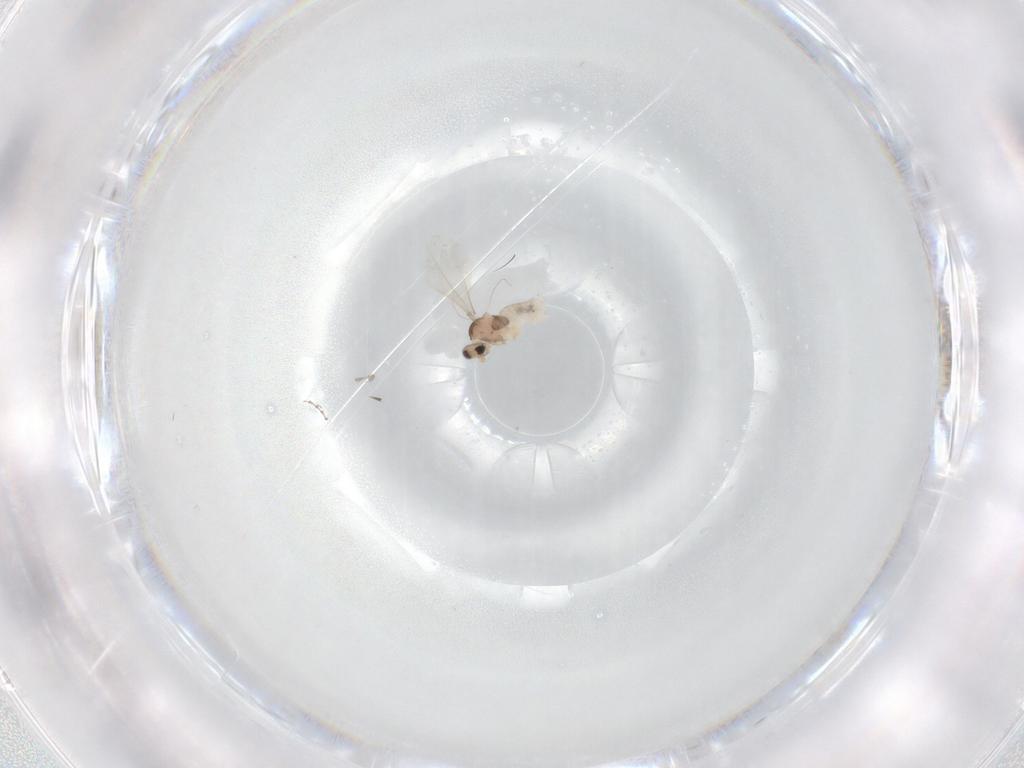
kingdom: Animalia
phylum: Arthropoda
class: Insecta
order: Diptera
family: Cecidomyiidae
